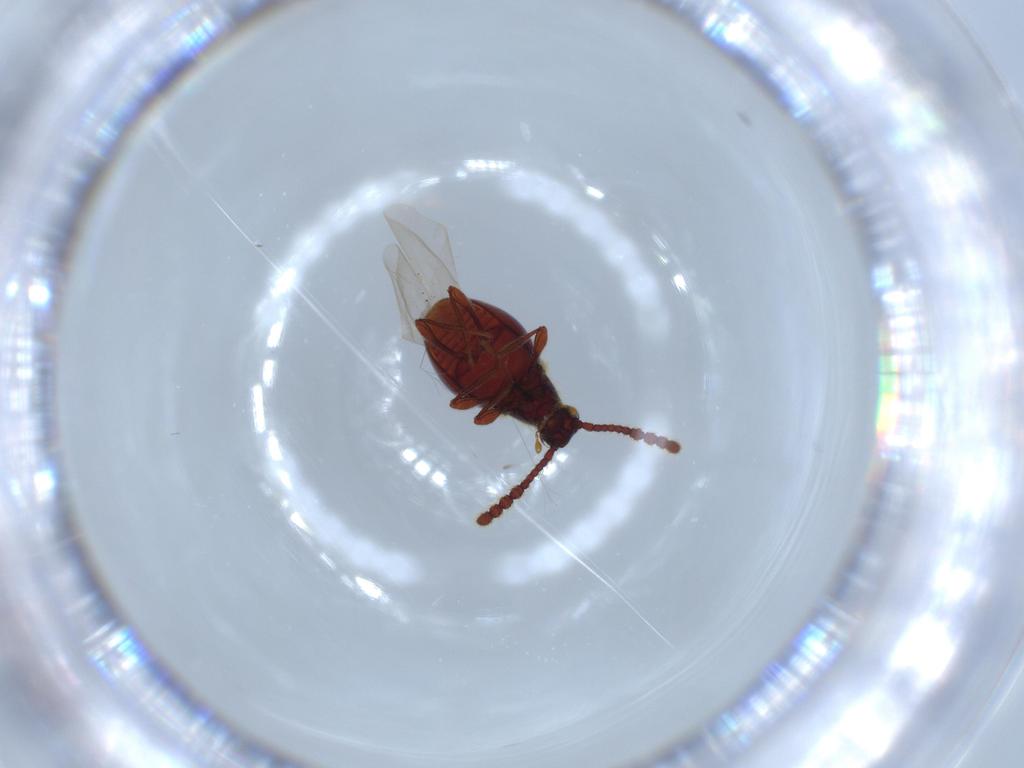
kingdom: Animalia
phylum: Arthropoda
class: Insecta
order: Coleoptera
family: Staphylinidae
